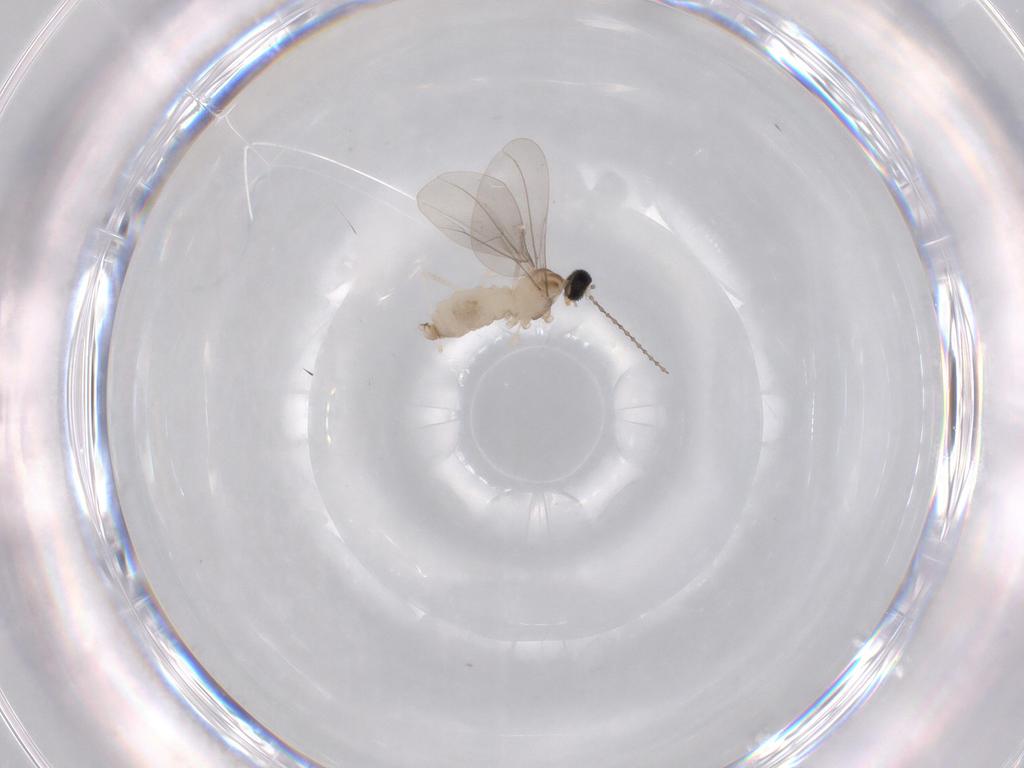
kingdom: Animalia
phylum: Arthropoda
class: Insecta
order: Diptera
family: Cecidomyiidae
